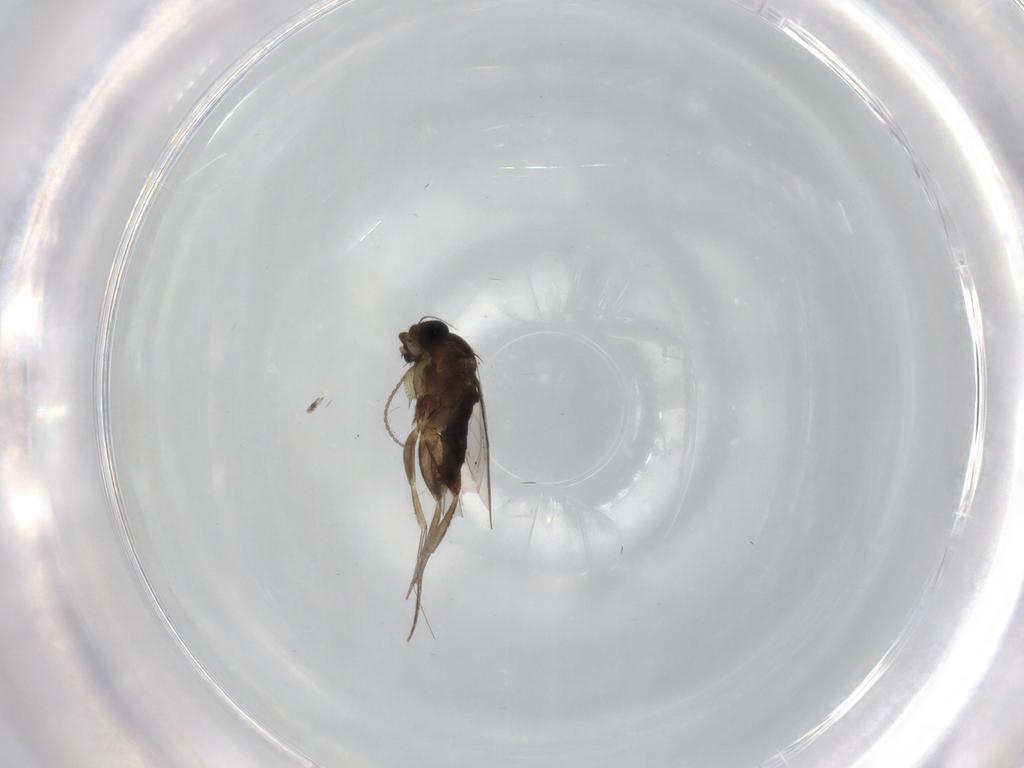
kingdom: Animalia
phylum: Arthropoda
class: Insecta
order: Diptera
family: Phoridae
